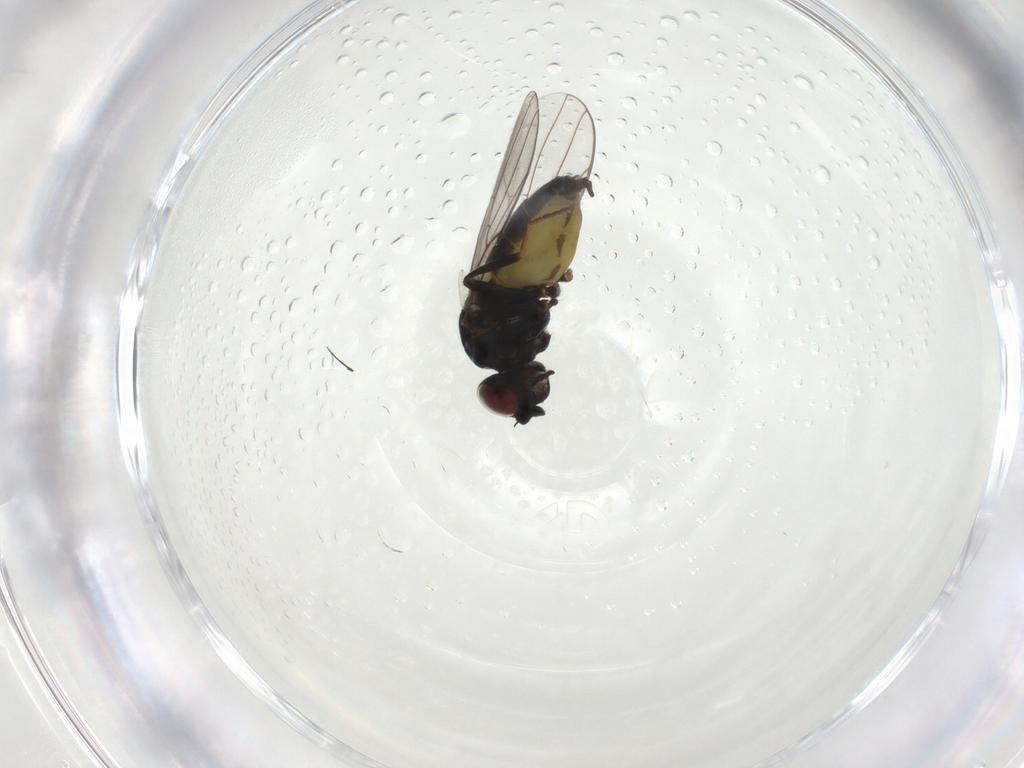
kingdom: Animalia
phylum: Arthropoda
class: Insecta
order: Diptera
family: Chloropidae
